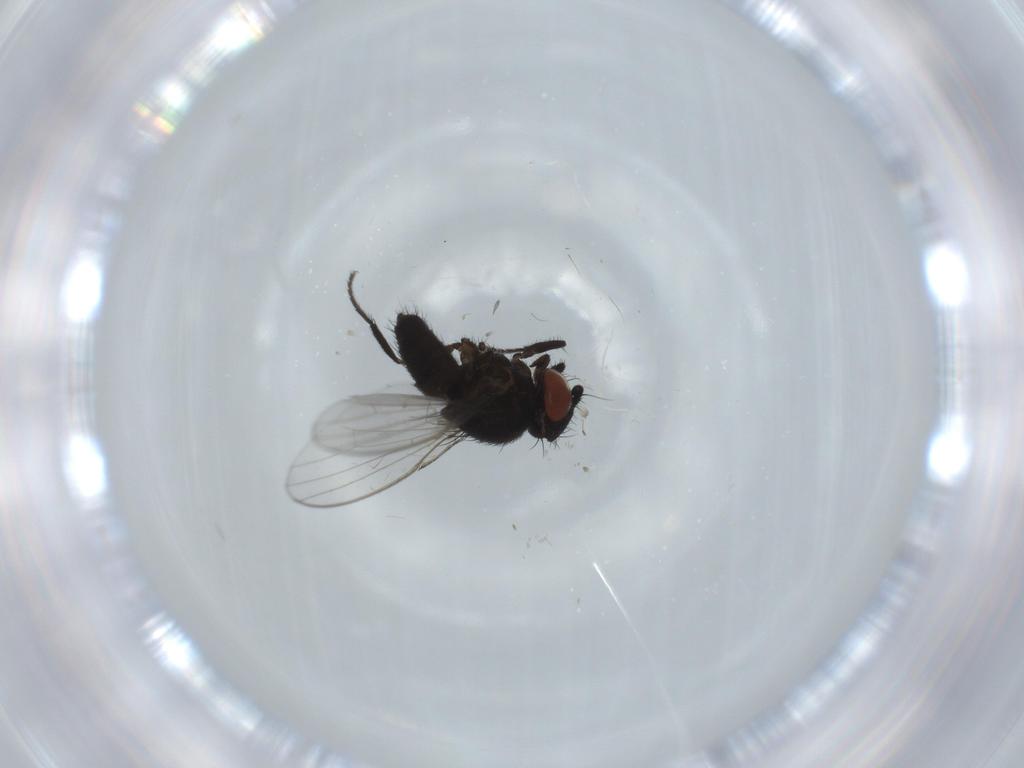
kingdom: Animalia
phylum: Arthropoda
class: Insecta
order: Diptera
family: Milichiidae
